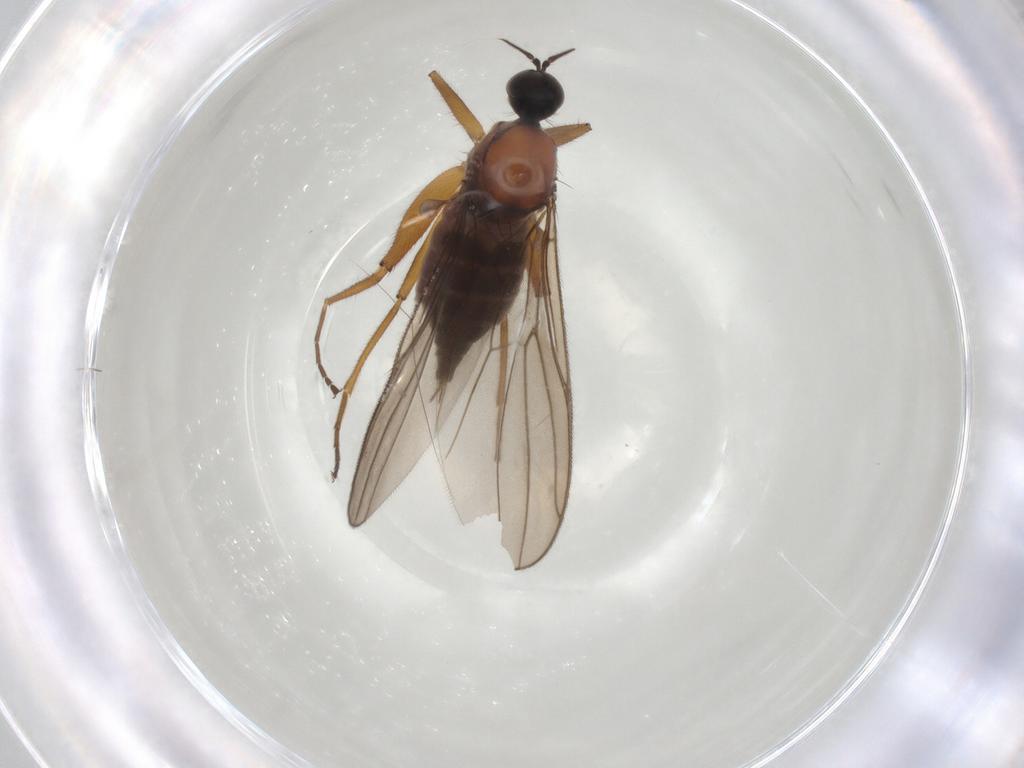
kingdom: Animalia
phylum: Arthropoda
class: Insecta
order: Diptera
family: Hybotidae
